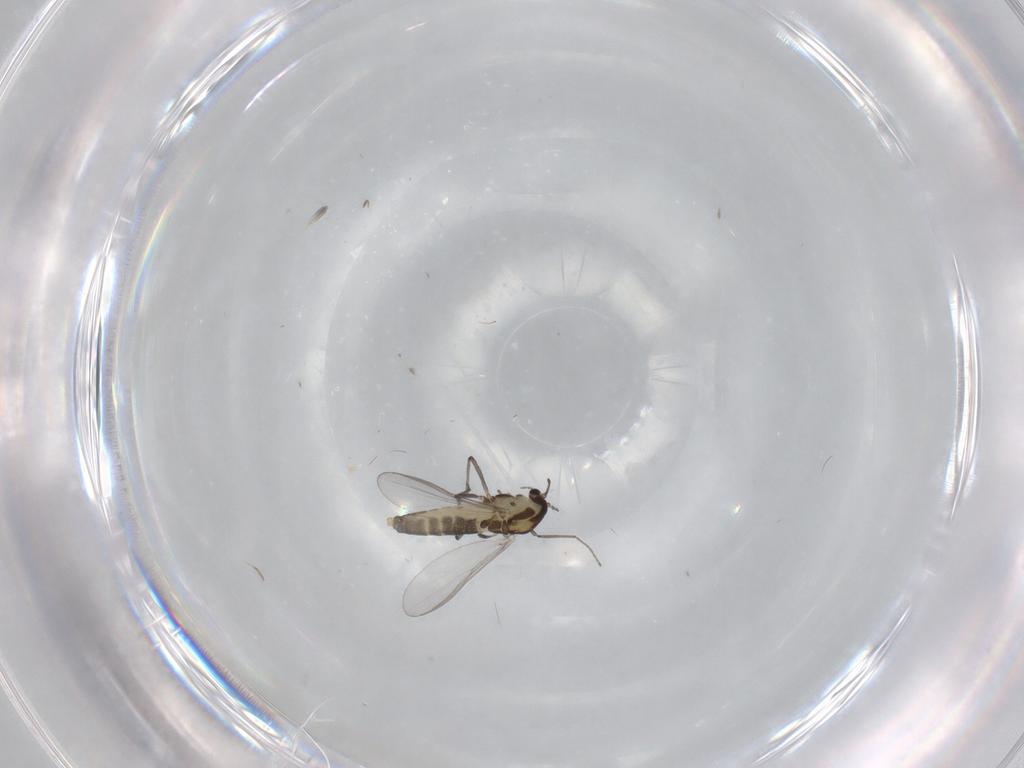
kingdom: Animalia
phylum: Arthropoda
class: Insecta
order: Diptera
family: Chironomidae
